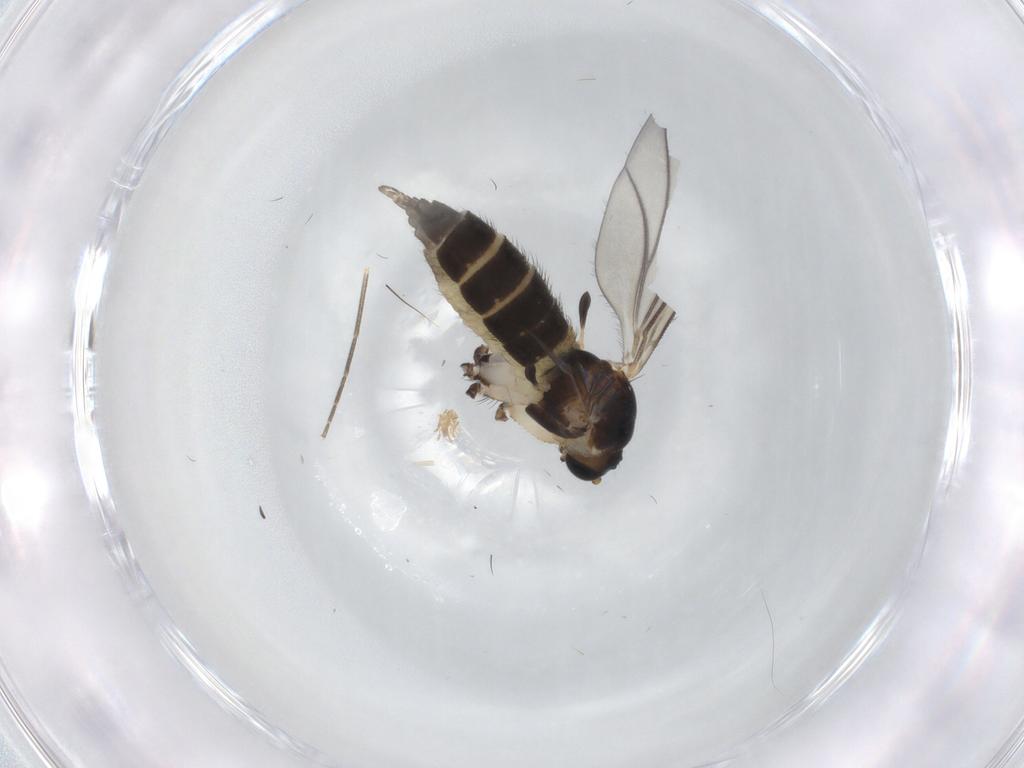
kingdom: Animalia
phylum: Arthropoda
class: Insecta
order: Diptera
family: Sciaridae
